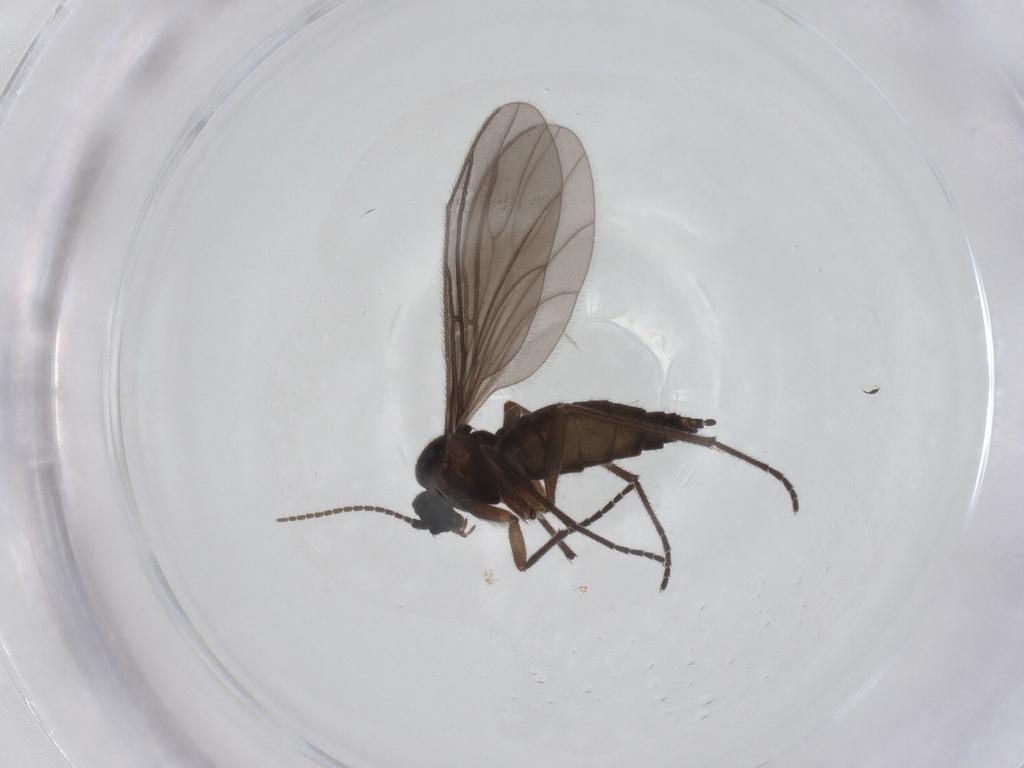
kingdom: Animalia
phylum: Arthropoda
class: Insecta
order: Diptera
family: Sciaridae
